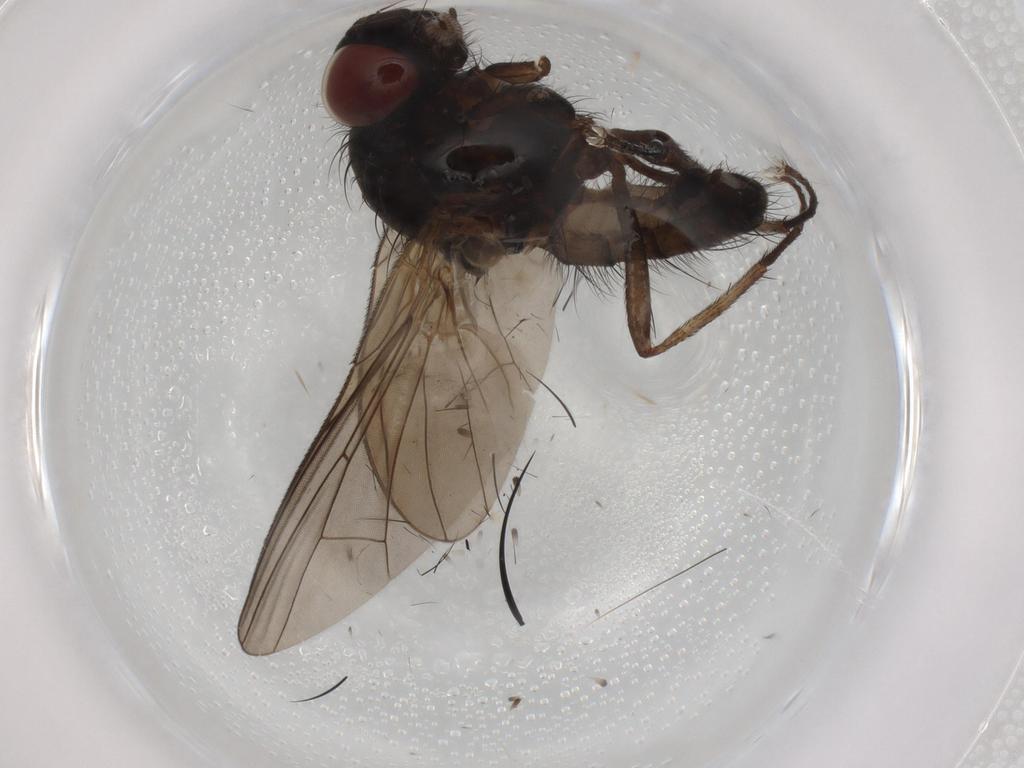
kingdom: Animalia
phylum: Arthropoda
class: Insecta
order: Diptera
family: Anthomyiidae
